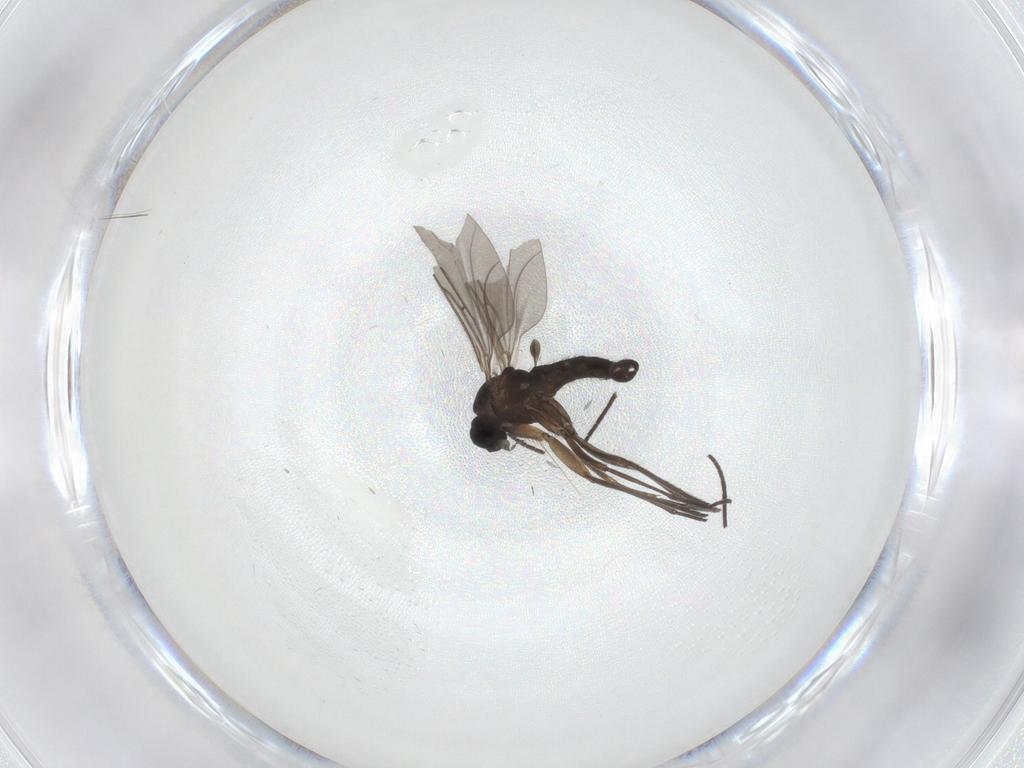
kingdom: Animalia
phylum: Arthropoda
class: Insecta
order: Diptera
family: Sciaridae
